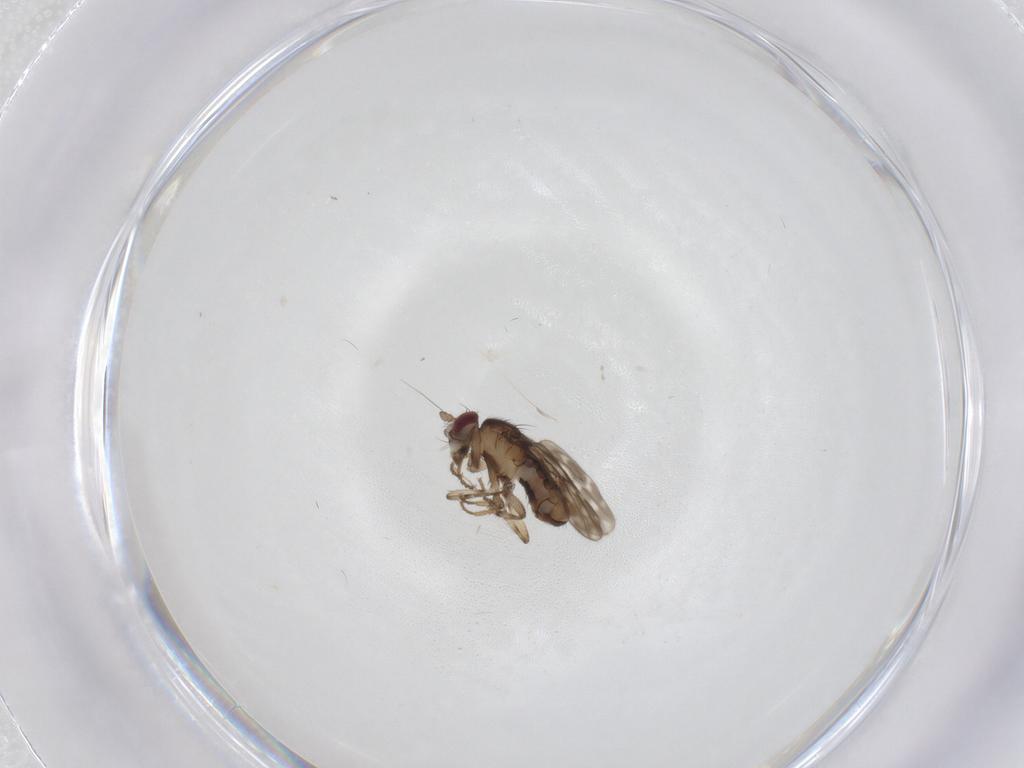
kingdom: Animalia
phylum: Arthropoda
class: Insecta
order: Diptera
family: Sphaeroceridae
